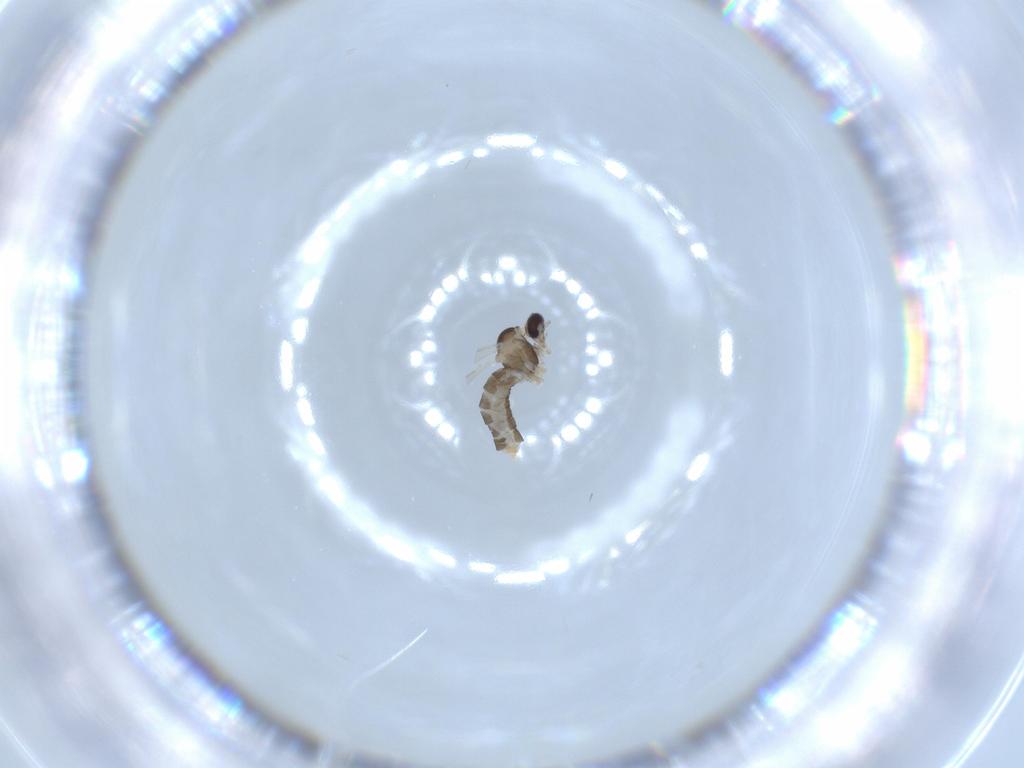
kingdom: Animalia
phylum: Arthropoda
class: Insecta
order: Diptera
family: Cecidomyiidae
